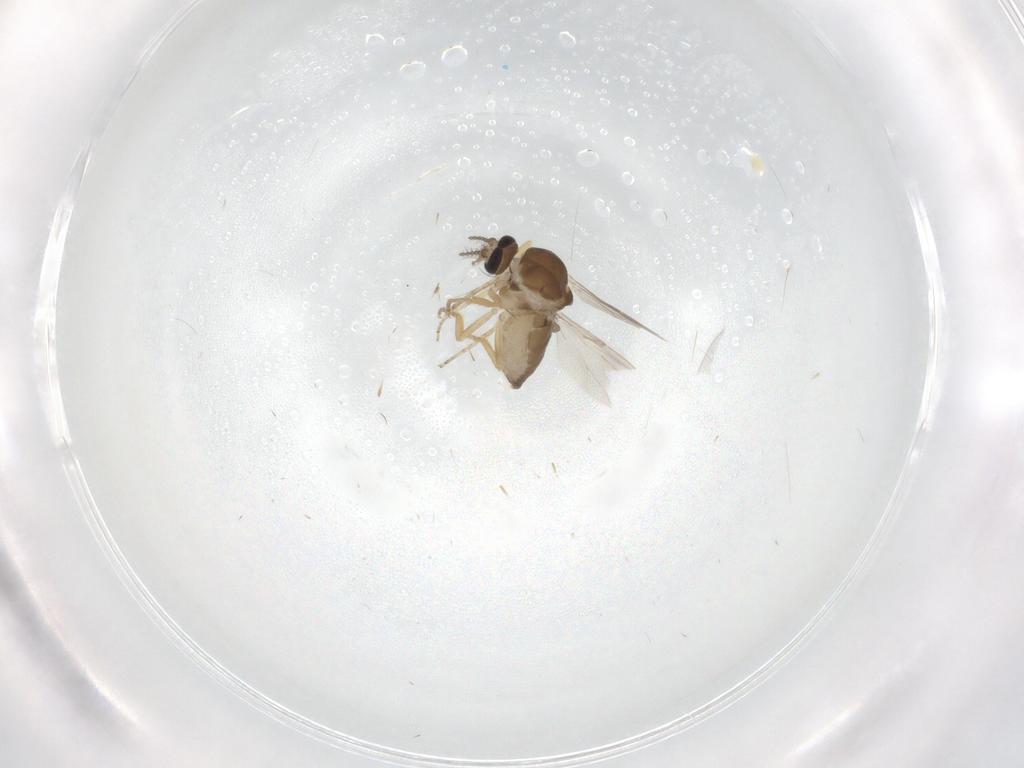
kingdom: Animalia
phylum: Arthropoda
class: Insecta
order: Diptera
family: Ceratopogonidae
